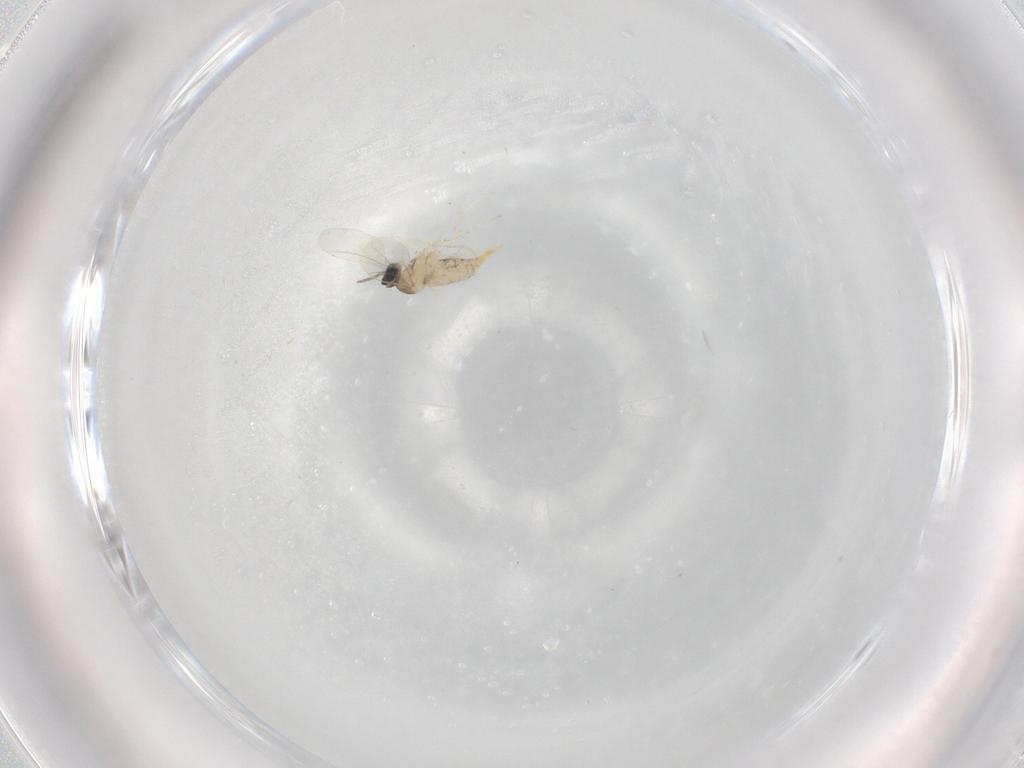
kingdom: Animalia
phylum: Arthropoda
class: Insecta
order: Diptera
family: Cecidomyiidae
